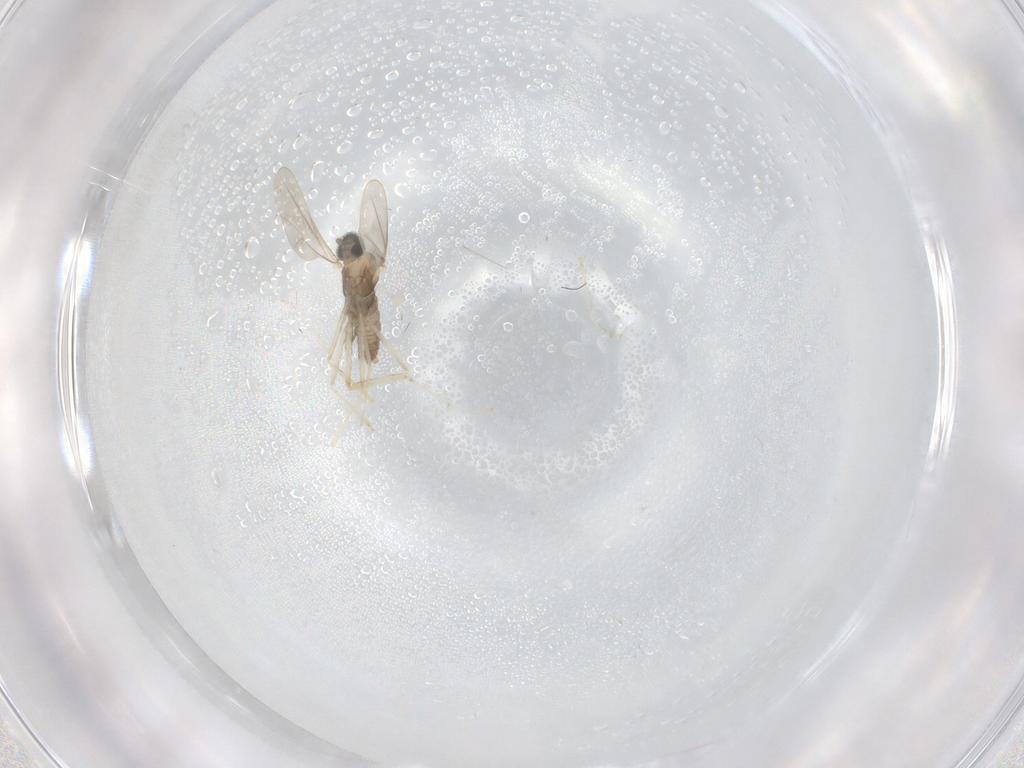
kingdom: Animalia
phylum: Arthropoda
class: Insecta
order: Diptera
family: Cecidomyiidae
